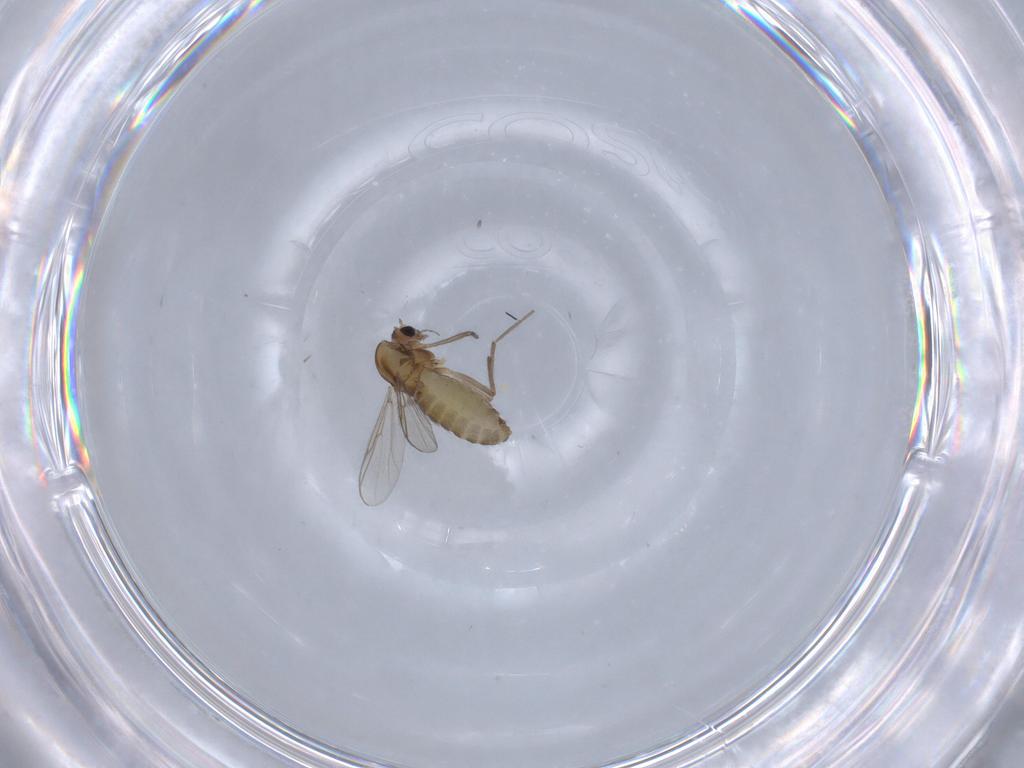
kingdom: Animalia
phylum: Arthropoda
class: Insecta
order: Diptera
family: Chironomidae
